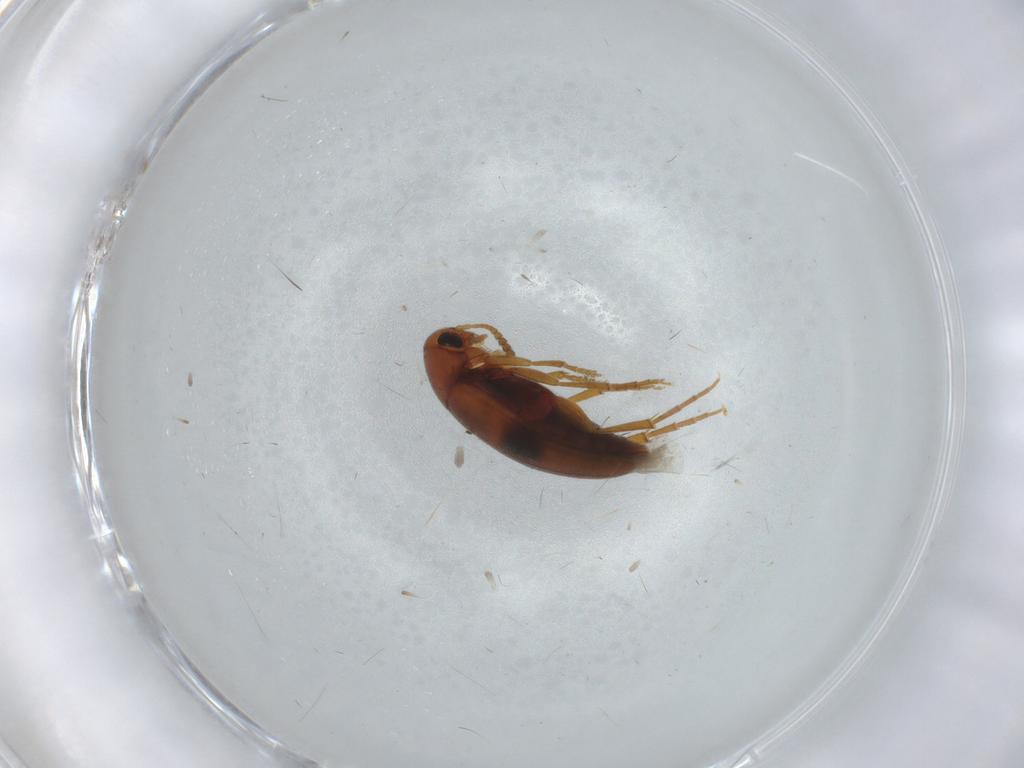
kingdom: Animalia
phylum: Arthropoda
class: Insecta
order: Coleoptera
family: Scraptiidae
